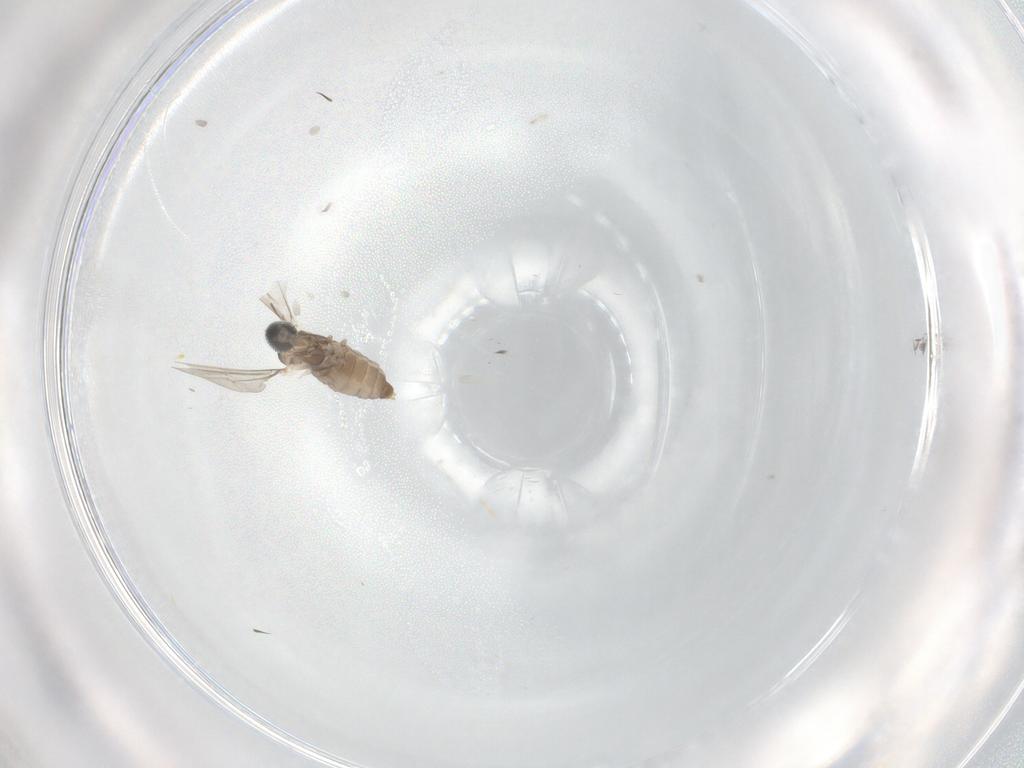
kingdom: Animalia
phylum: Arthropoda
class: Insecta
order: Diptera
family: Cecidomyiidae
